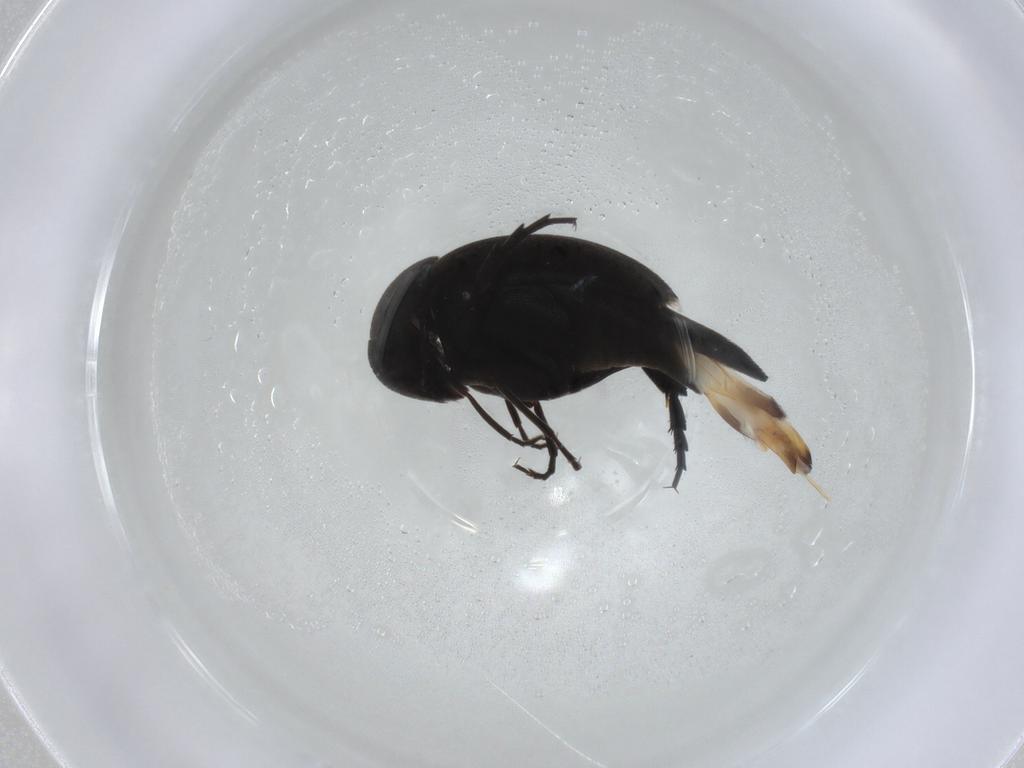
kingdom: Animalia
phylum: Arthropoda
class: Insecta
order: Coleoptera
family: Mordellidae
